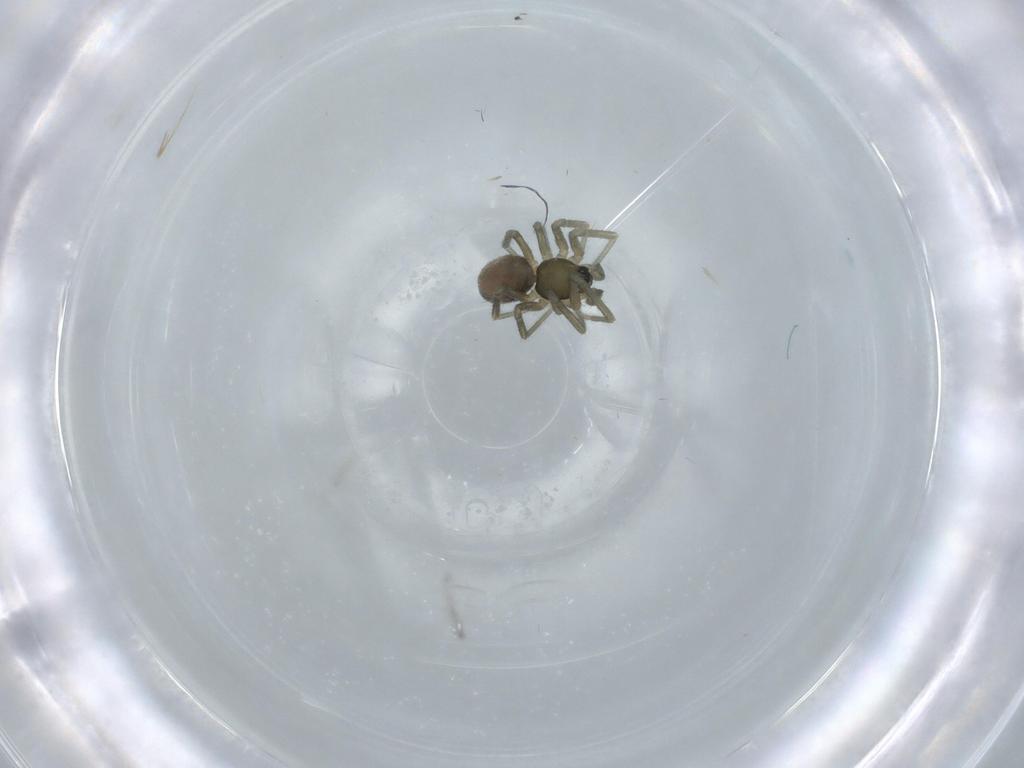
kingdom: Animalia
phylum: Arthropoda
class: Arachnida
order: Araneae
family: Linyphiidae
